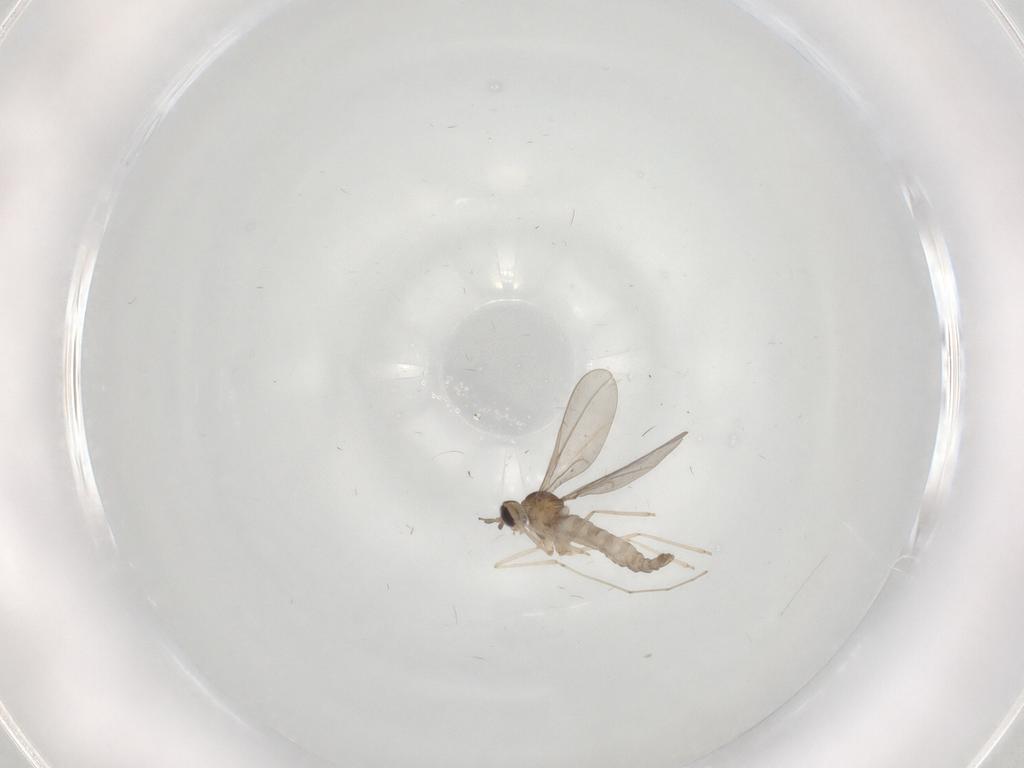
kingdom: Animalia
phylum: Arthropoda
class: Insecta
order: Diptera
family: Cecidomyiidae
